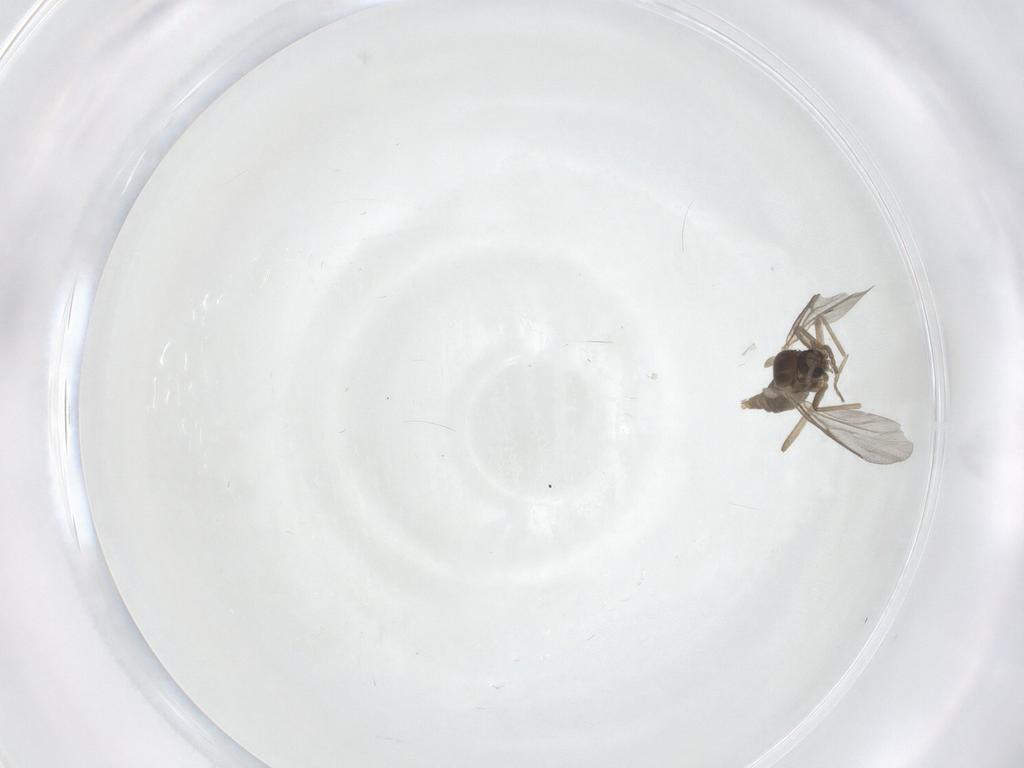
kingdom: Animalia
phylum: Arthropoda
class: Insecta
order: Diptera
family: Cecidomyiidae
